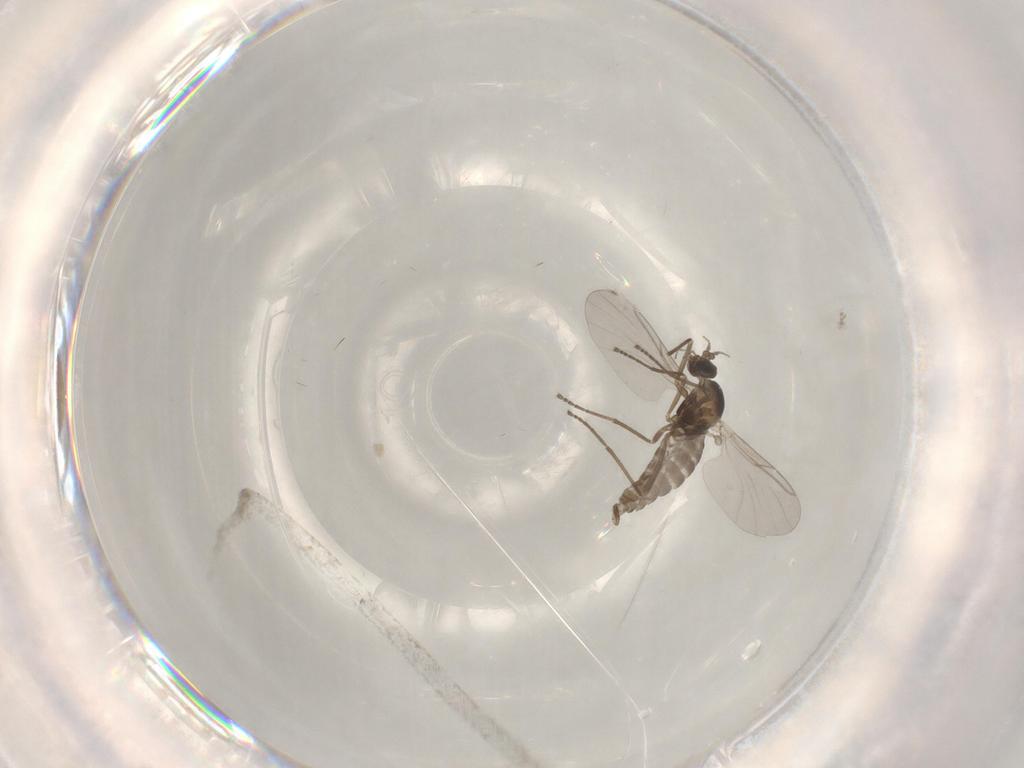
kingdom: Animalia
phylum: Arthropoda
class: Insecta
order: Diptera
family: Cecidomyiidae
